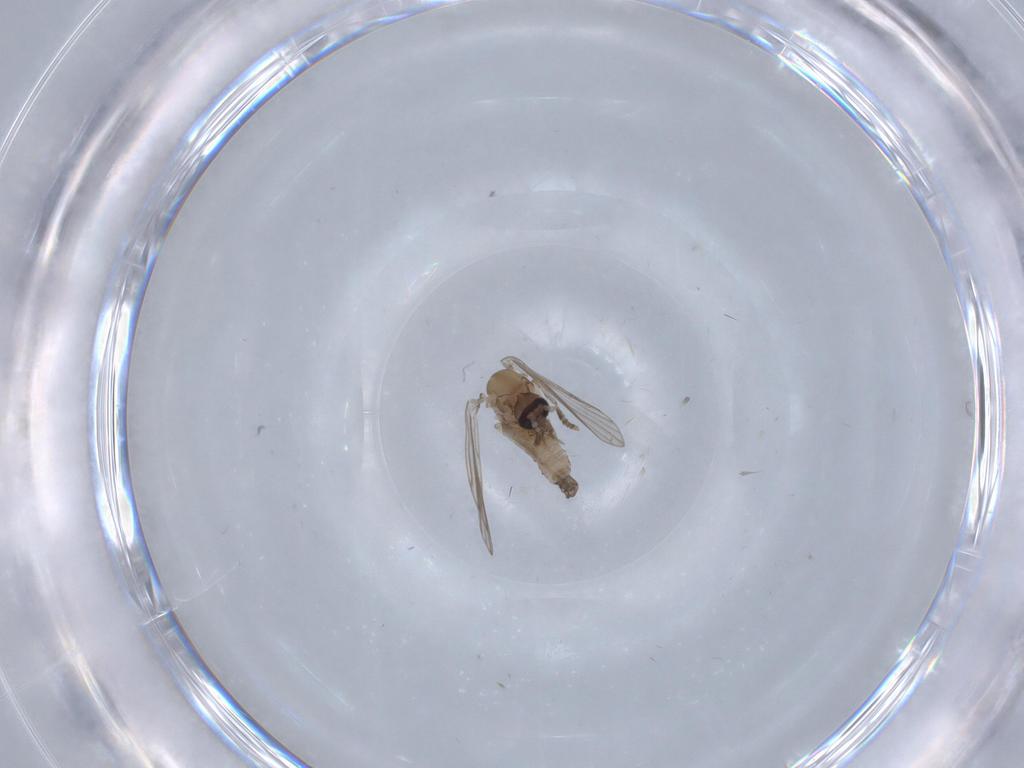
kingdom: Animalia
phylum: Arthropoda
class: Insecta
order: Diptera
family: Psychodidae
